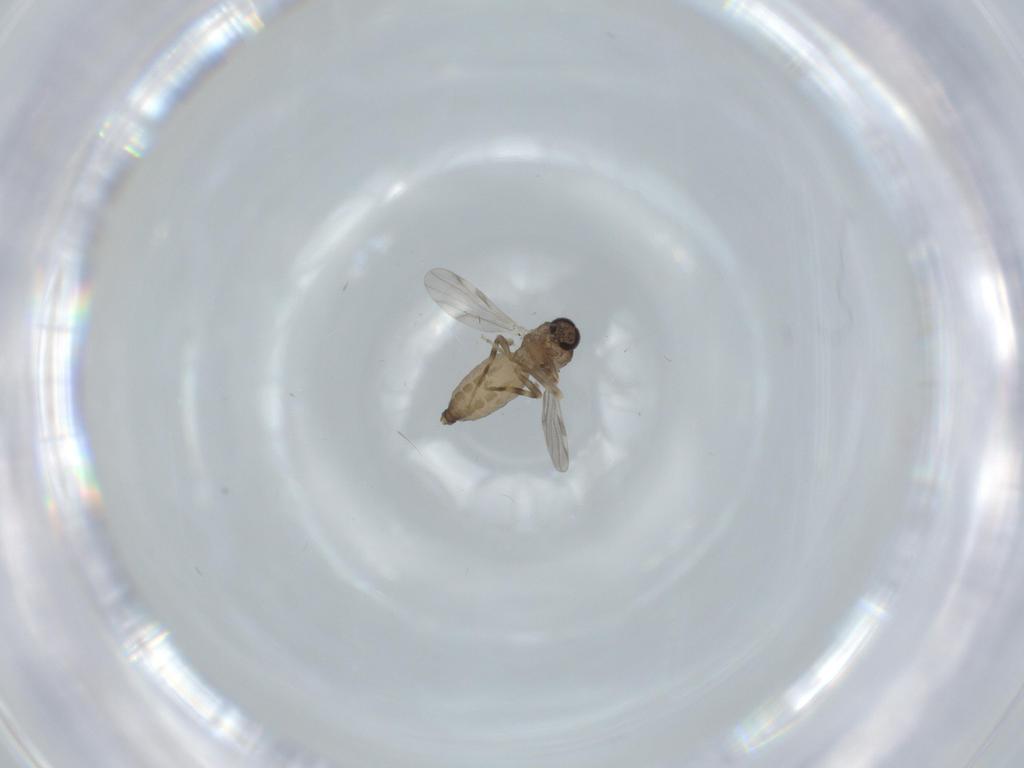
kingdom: Animalia
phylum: Arthropoda
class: Insecta
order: Diptera
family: Ceratopogonidae
